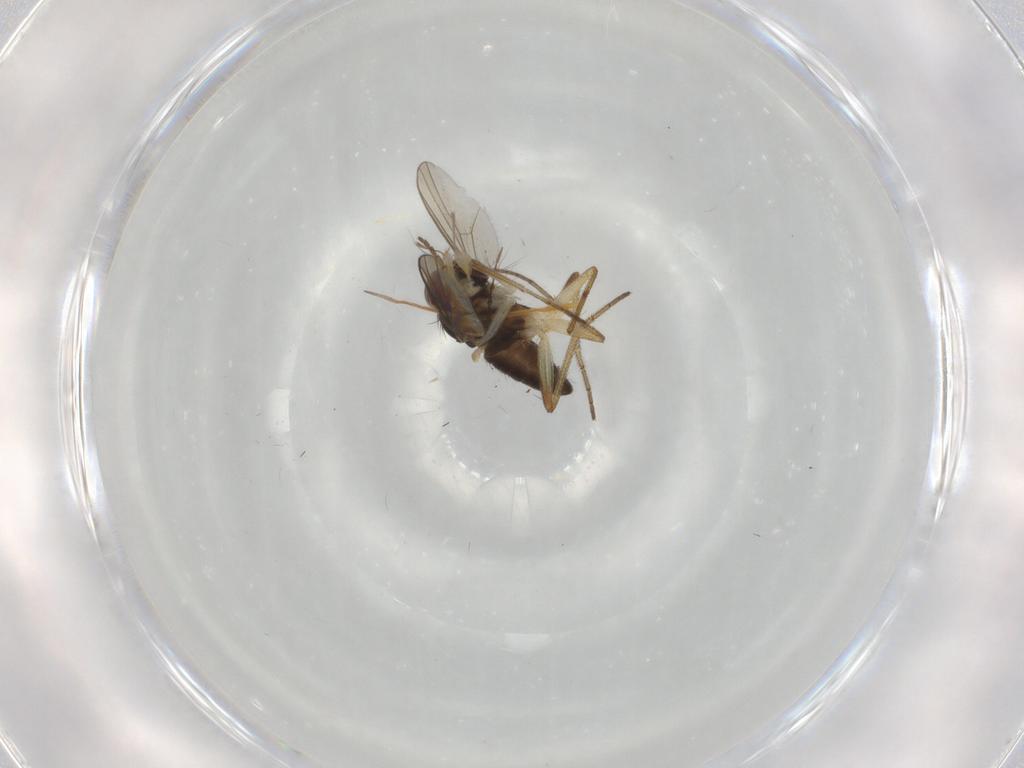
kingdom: Animalia
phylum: Arthropoda
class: Insecta
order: Diptera
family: Dolichopodidae
